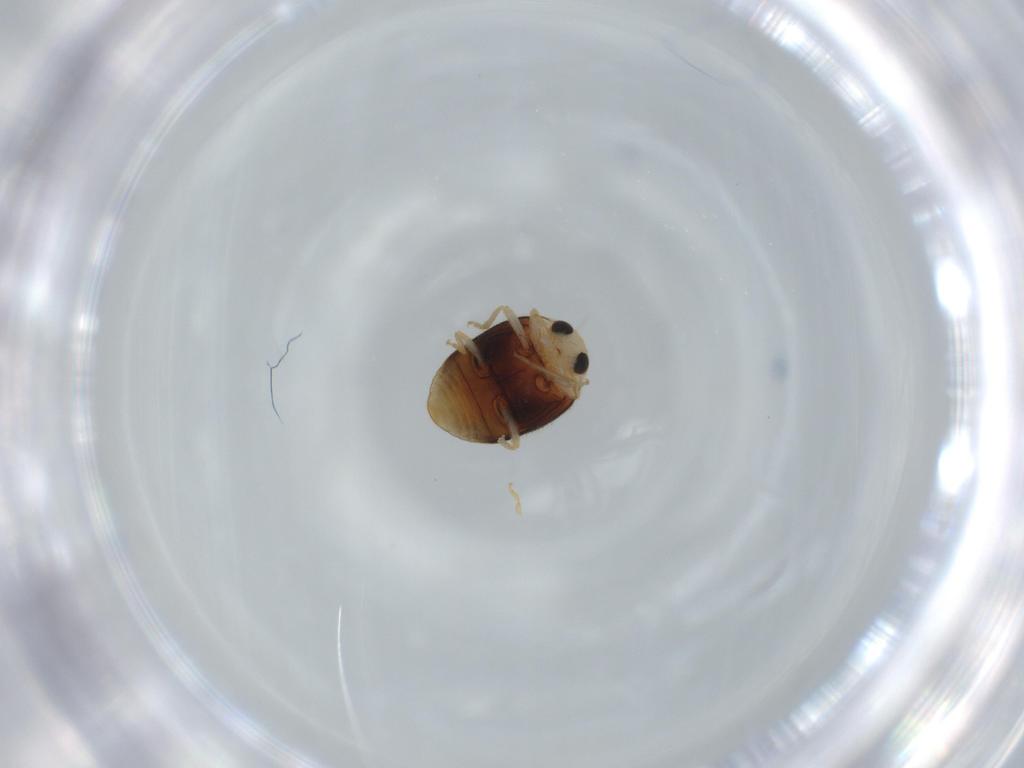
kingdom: Animalia
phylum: Arthropoda
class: Insecta
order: Coleoptera
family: Coccinellidae
